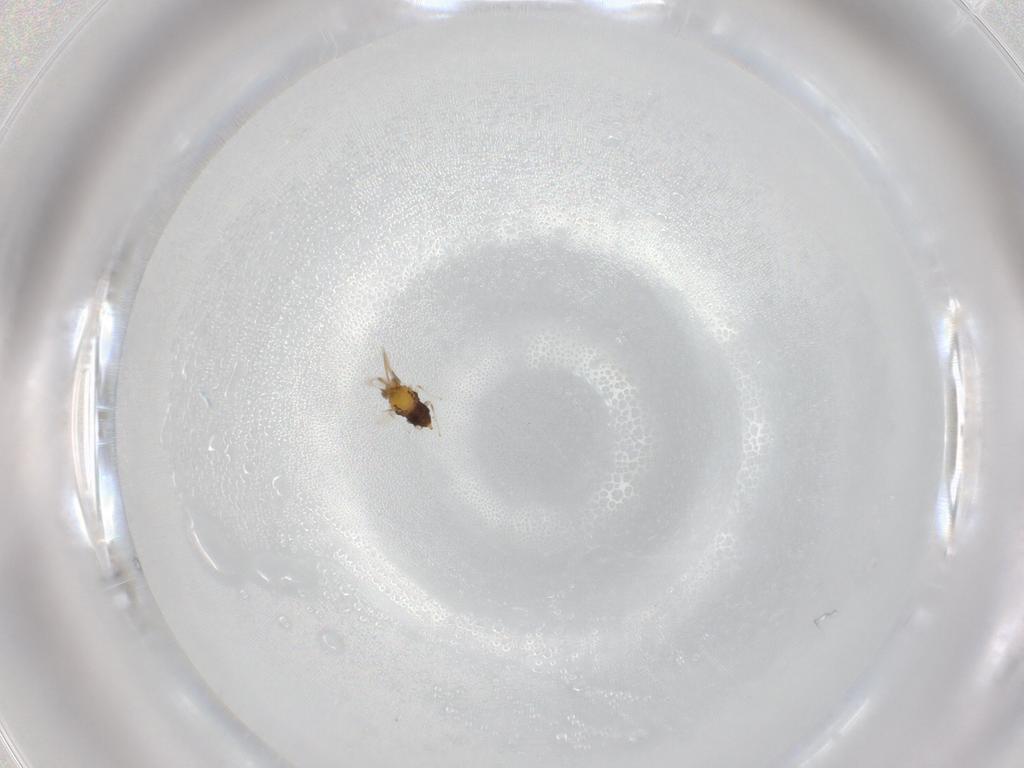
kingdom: Animalia
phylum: Arthropoda
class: Insecta
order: Hymenoptera
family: Aphelinidae
